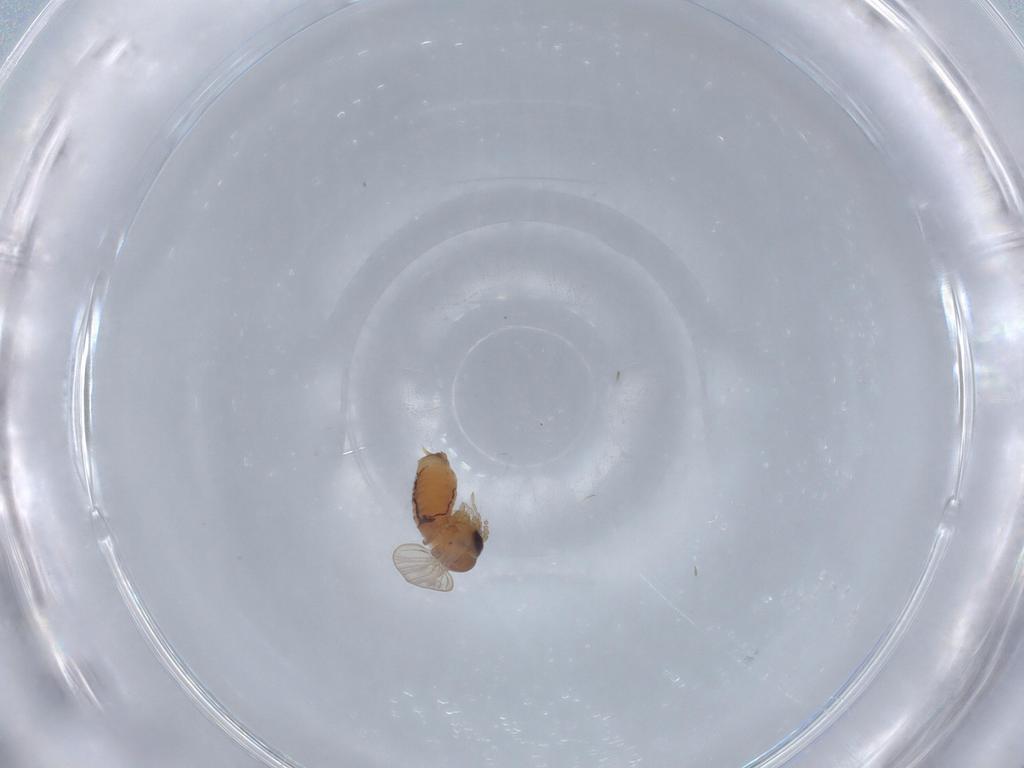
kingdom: Animalia
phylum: Arthropoda
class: Insecta
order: Diptera
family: Psychodidae
